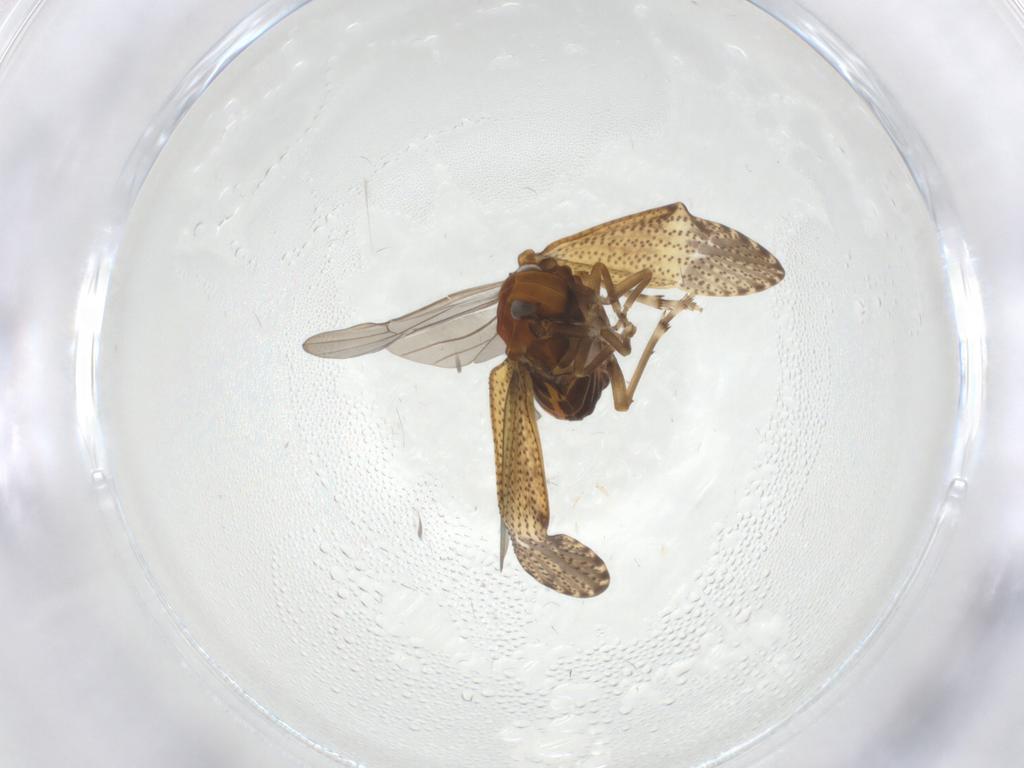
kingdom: Animalia
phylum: Arthropoda
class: Insecta
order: Hemiptera
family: Delphacidae
